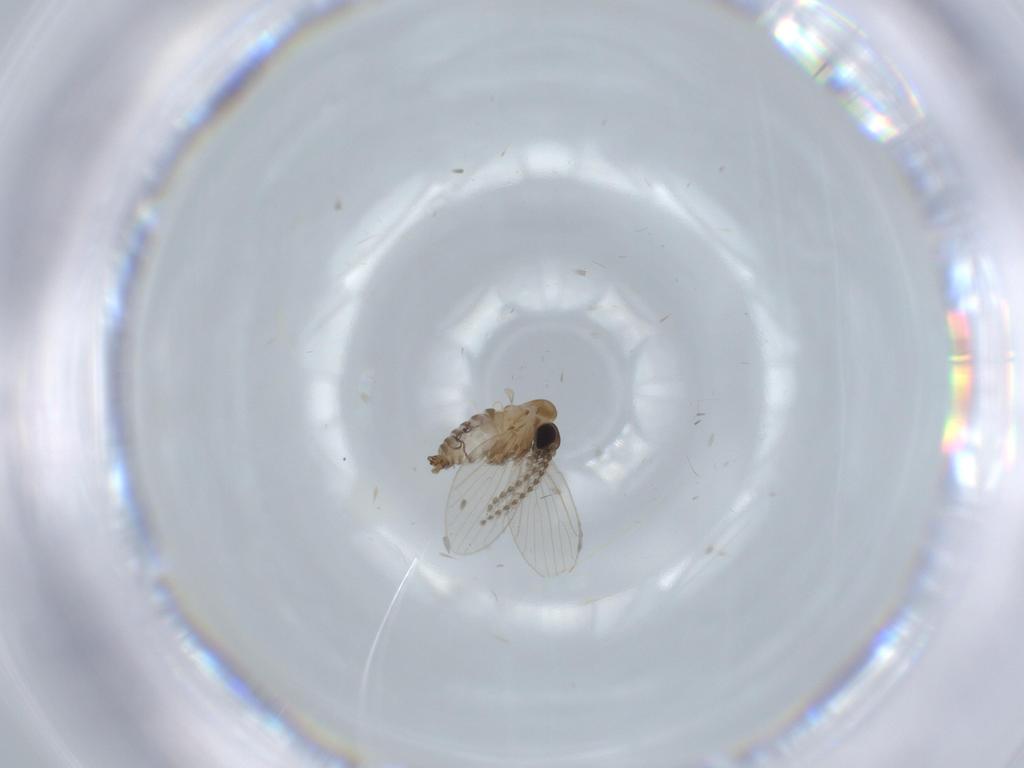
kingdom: Animalia
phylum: Arthropoda
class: Insecta
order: Diptera
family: Ceratopogonidae
